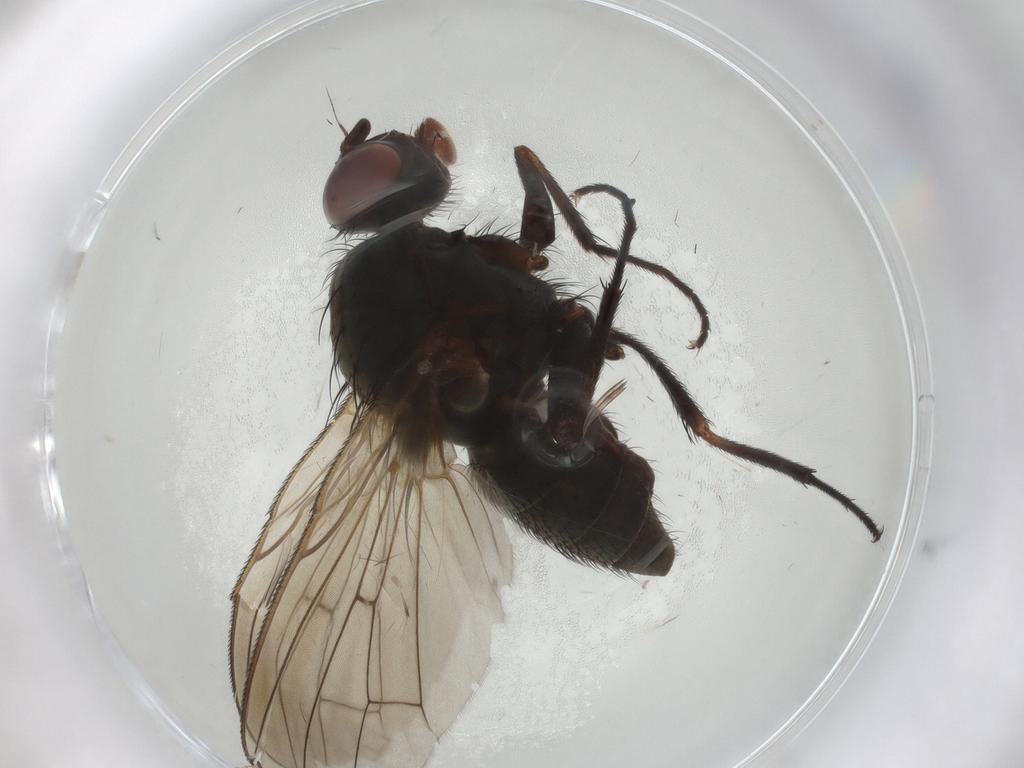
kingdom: Animalia
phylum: Arthropoda
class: Insecta
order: Diptera
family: Anthomyiidae
